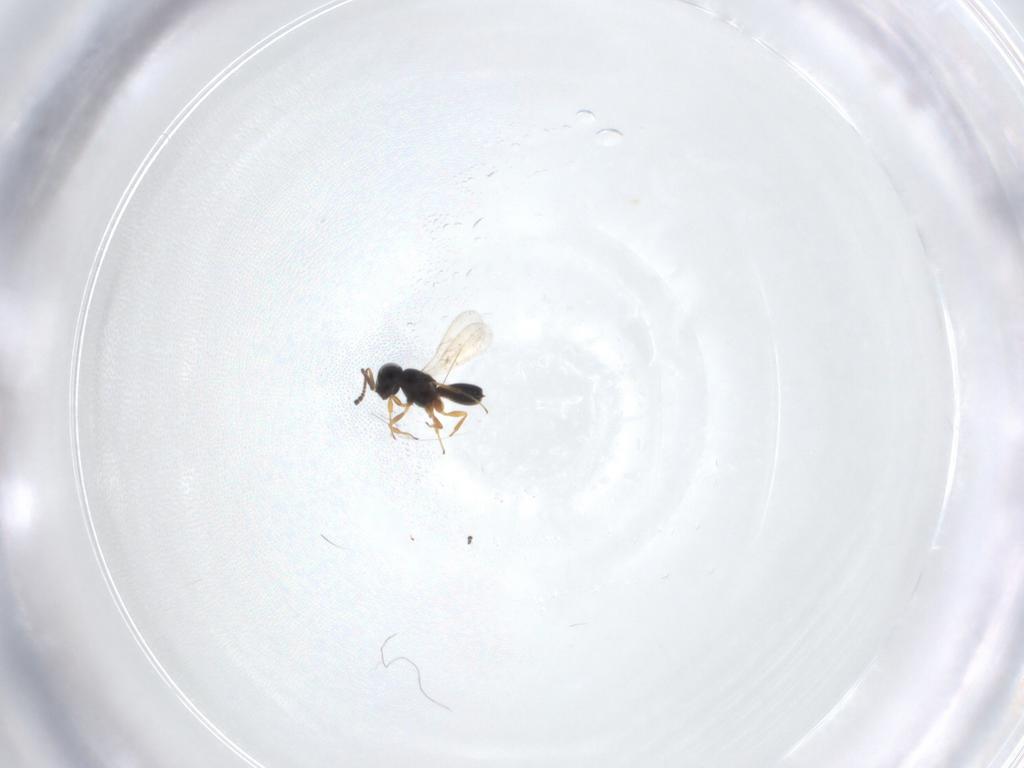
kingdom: Animalia
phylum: Arthropoda
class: Insecta
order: Hymenoptera
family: Scelionidae
